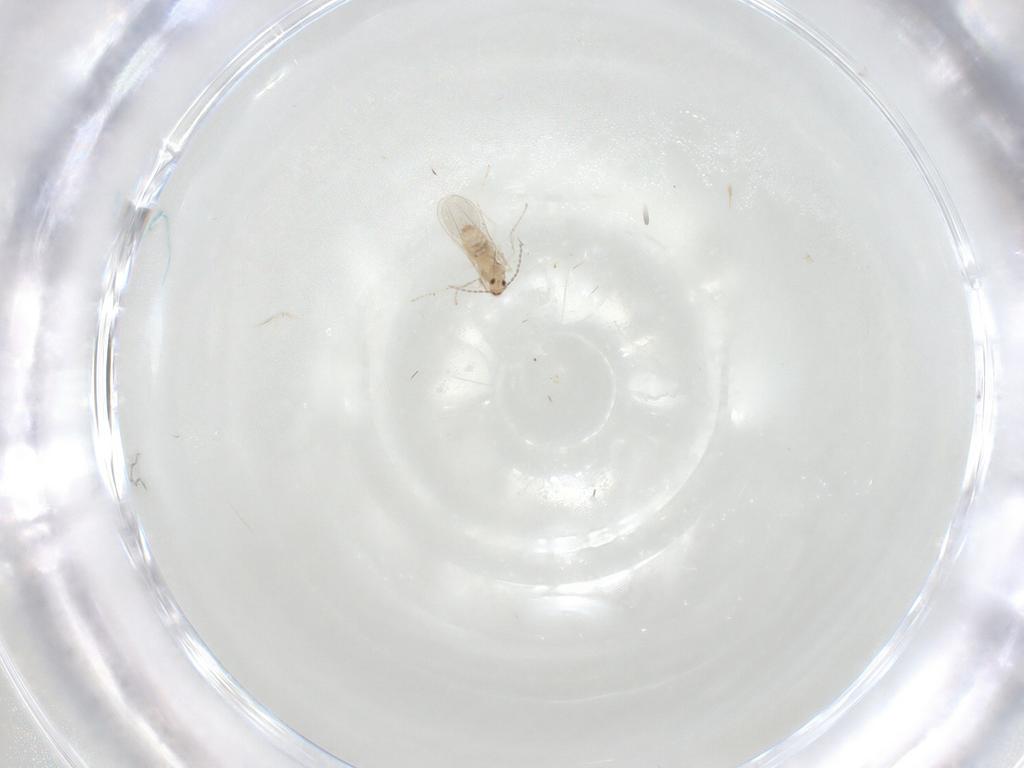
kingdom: Animalia
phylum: Arthropoda
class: Insecta
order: Diptera
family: Cecidomyiidae
